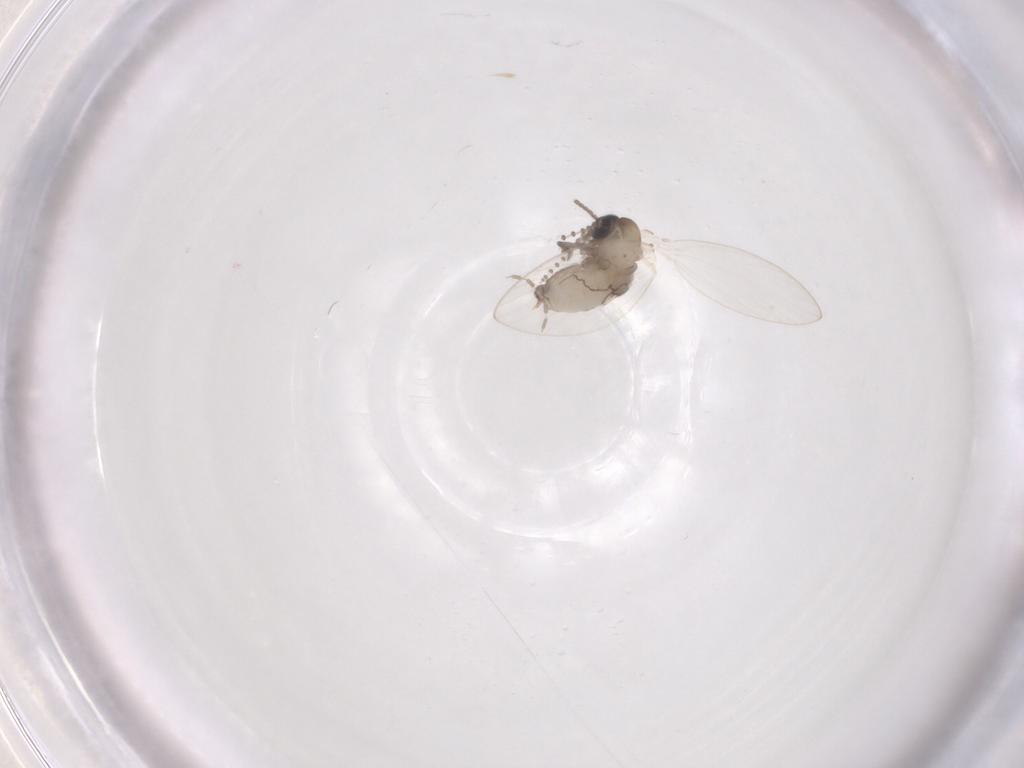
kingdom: Animalia
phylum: Arthropoda
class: Insecta
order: Diptera
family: Psychodidae
